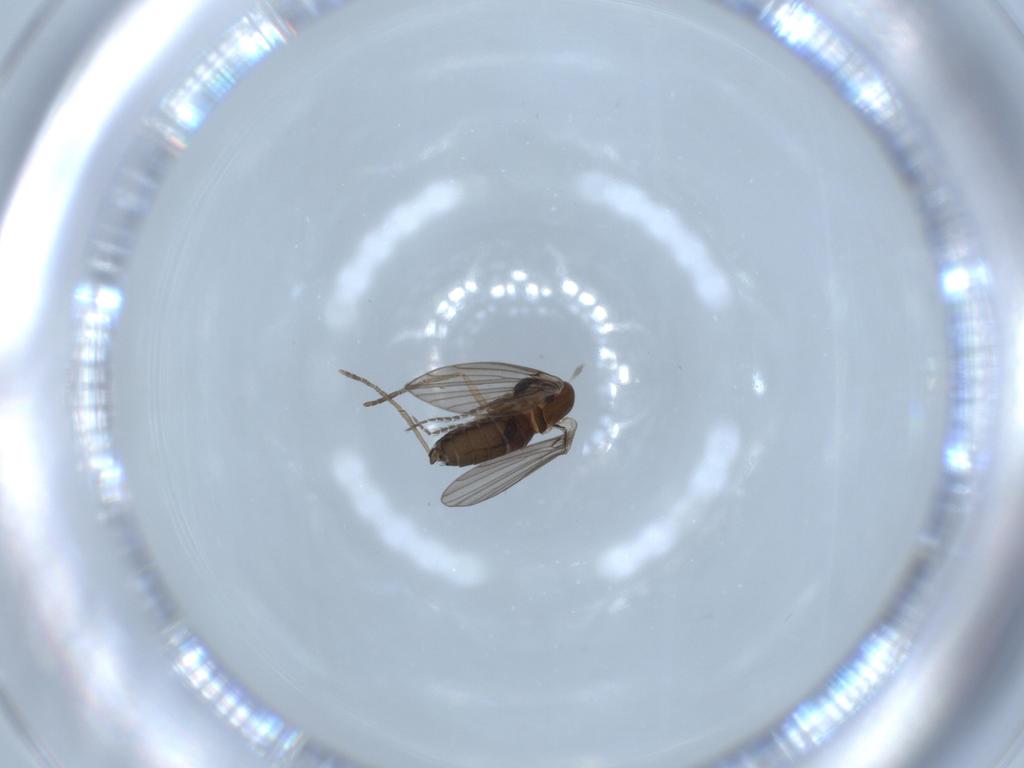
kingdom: Animalia
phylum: Arthropoda
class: Insecta
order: Diptera
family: Psychodidae
